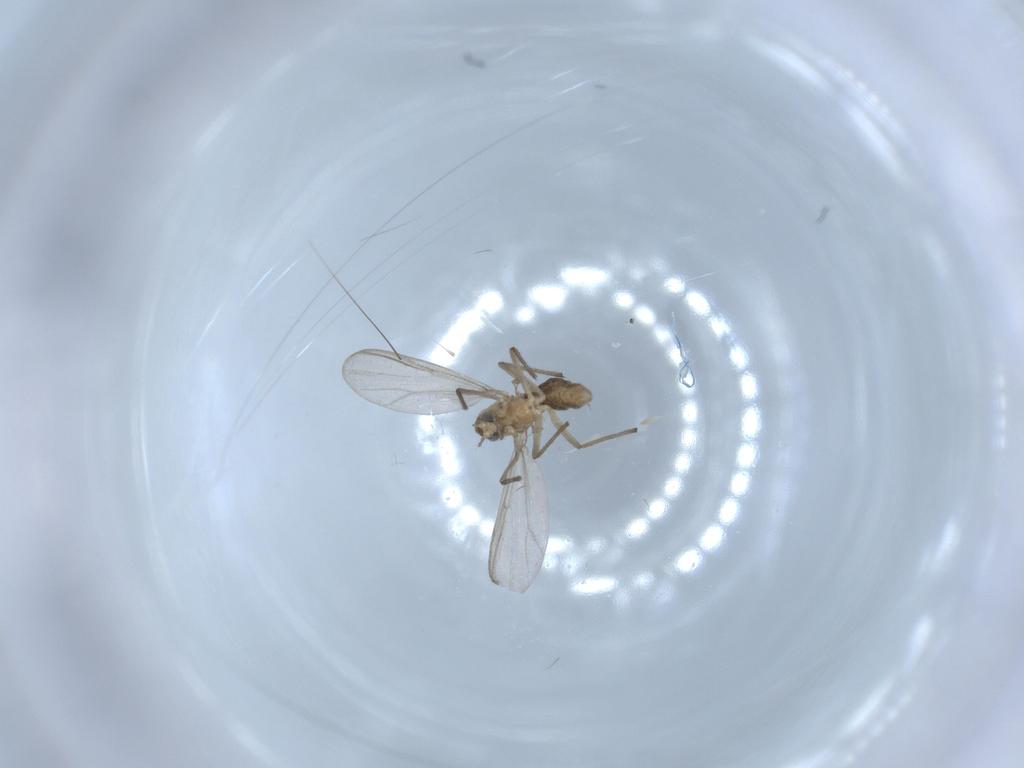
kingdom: Animalia
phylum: Arthropoda
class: Insecta
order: Diptera
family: Chironomidae
